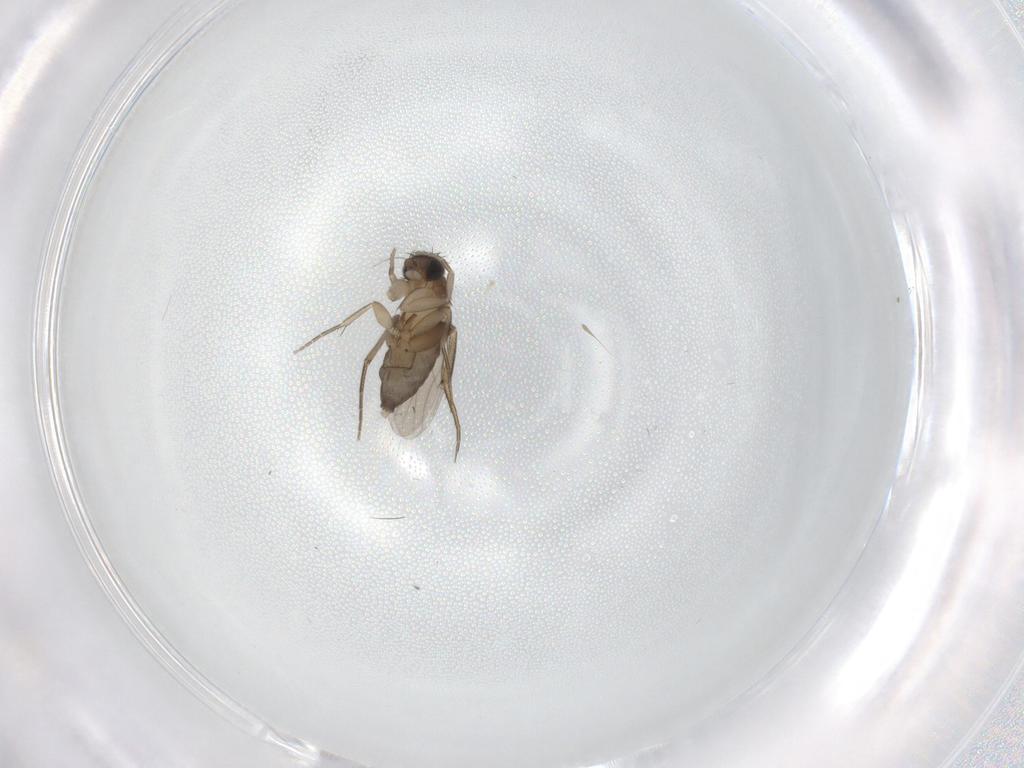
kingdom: Animalia
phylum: Arthropoda
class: Insecta
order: Diptera
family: Phoridae
